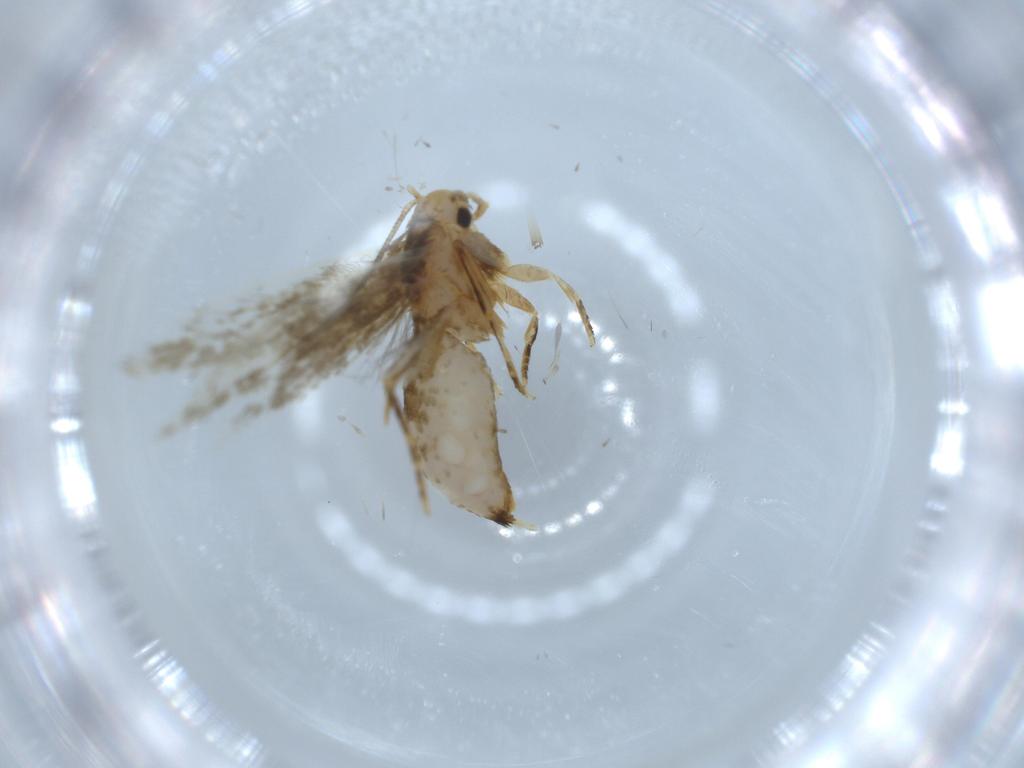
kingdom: Animalia
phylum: Arthropoda
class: Insecta
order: Lepidoptera
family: Tineidae
